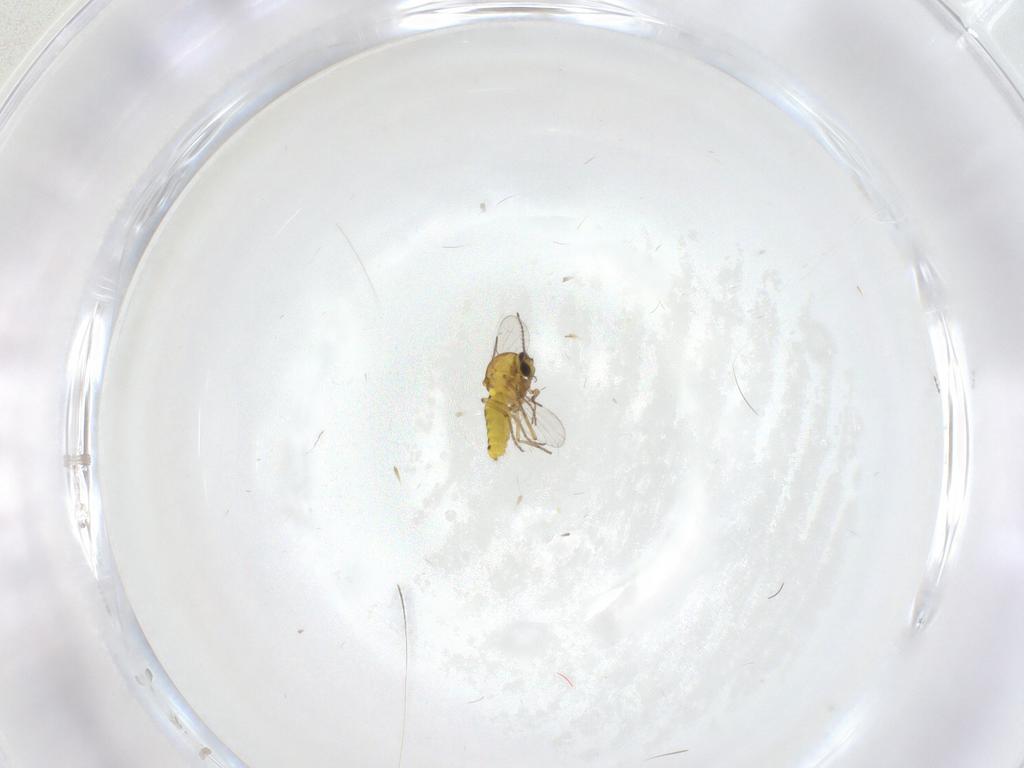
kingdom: Animalia
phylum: Arthropoda
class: Insecta
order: Diptera
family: Ceratopogonidae
